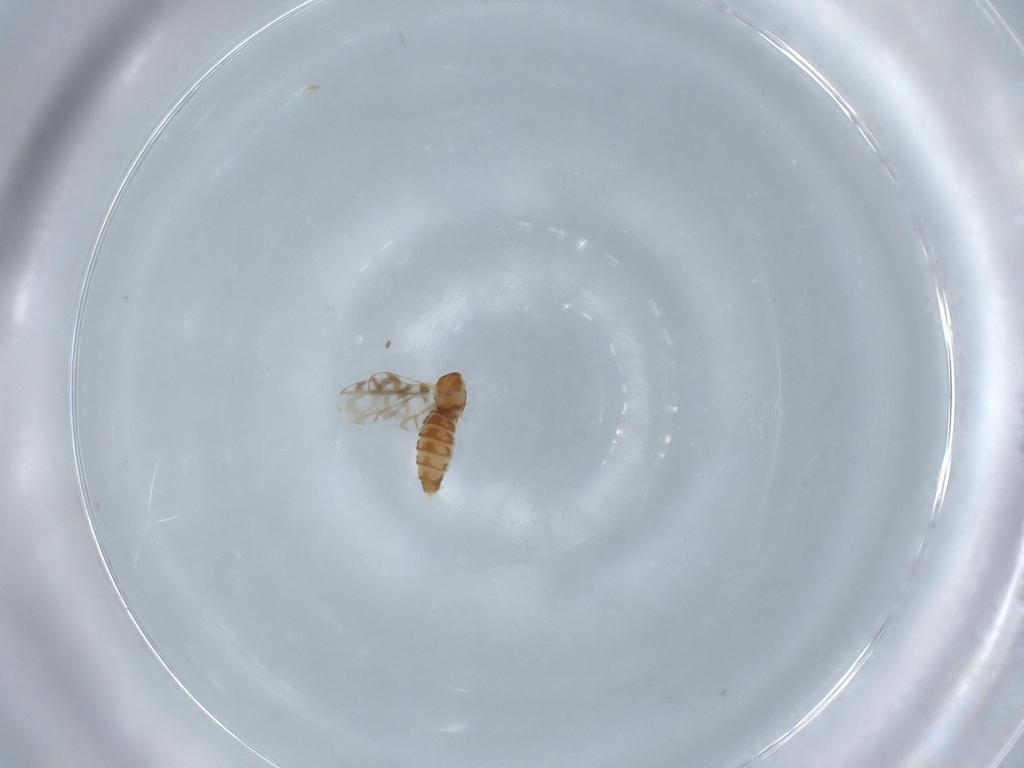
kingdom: Animalia
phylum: Arthropoda
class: Insecta
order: Diptera
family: Cecidomyiidae
